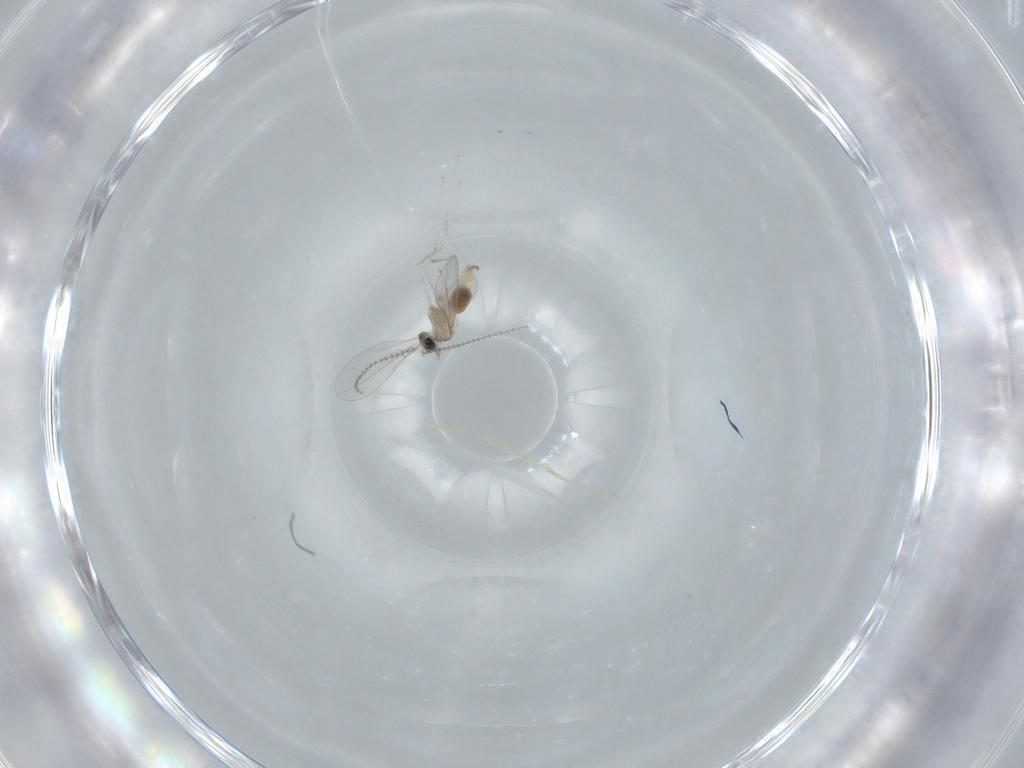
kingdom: Animalia
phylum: Arthropoda
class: Insecta
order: Diptera
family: Cecidomyiidae
